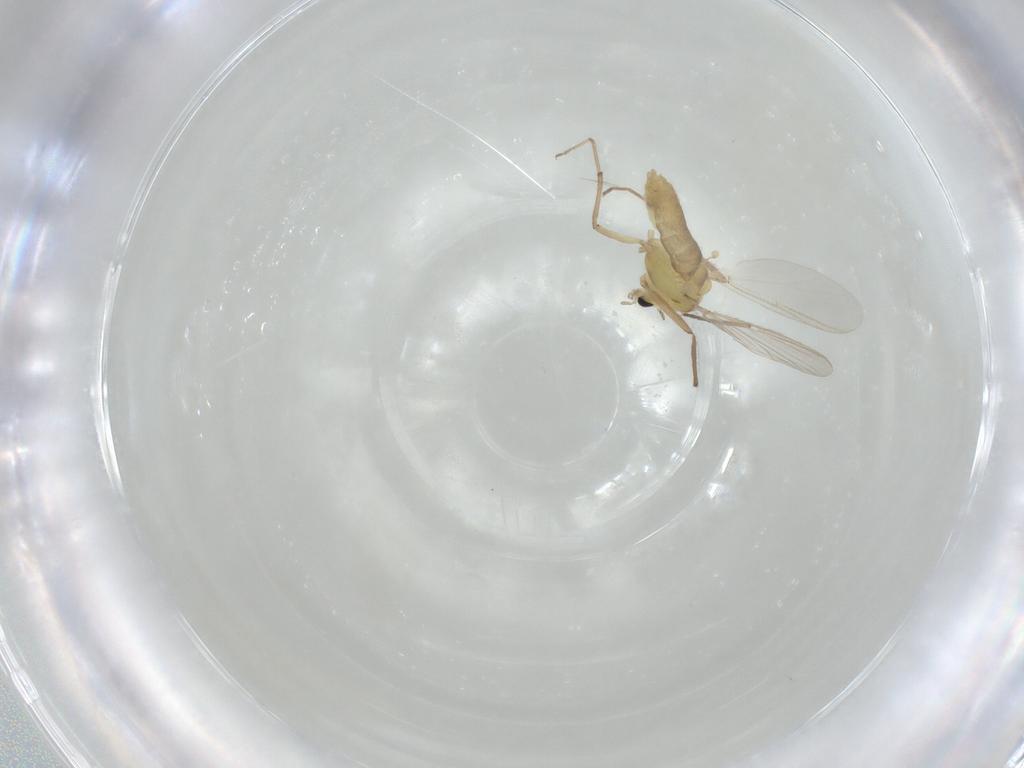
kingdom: Animalia
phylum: Arthropoda
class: Insecta
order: Diptera
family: Chironomidae
